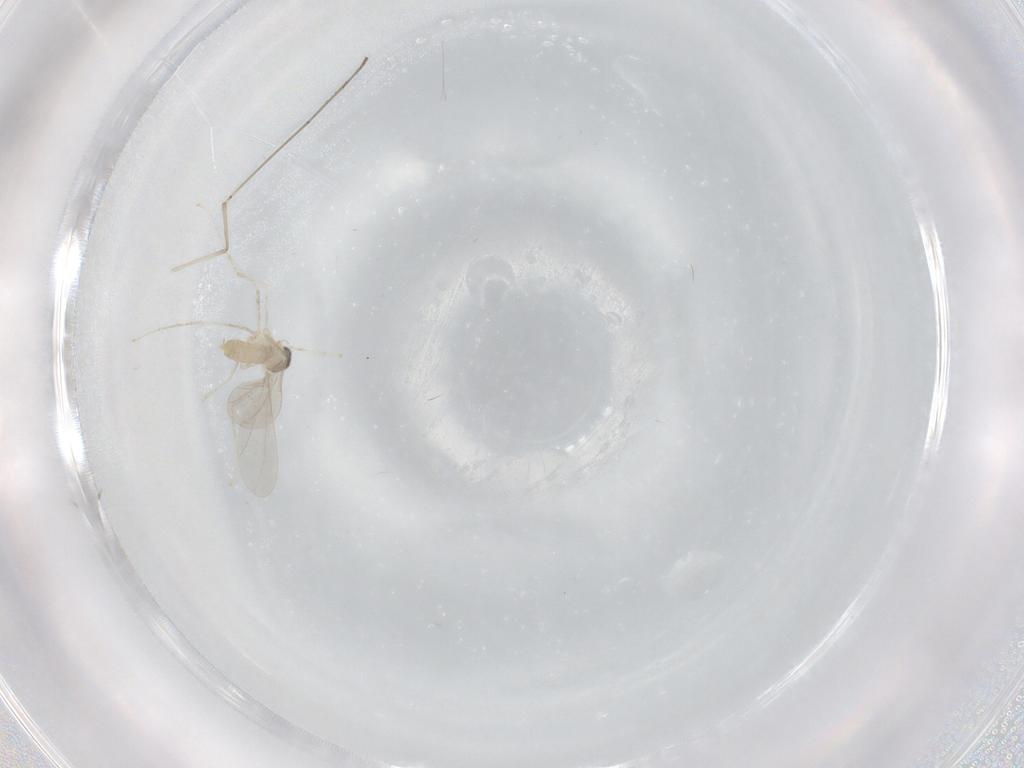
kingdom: Animalia
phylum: Arthropoda
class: Insecta
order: Diptera
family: Cecidomyiidae
